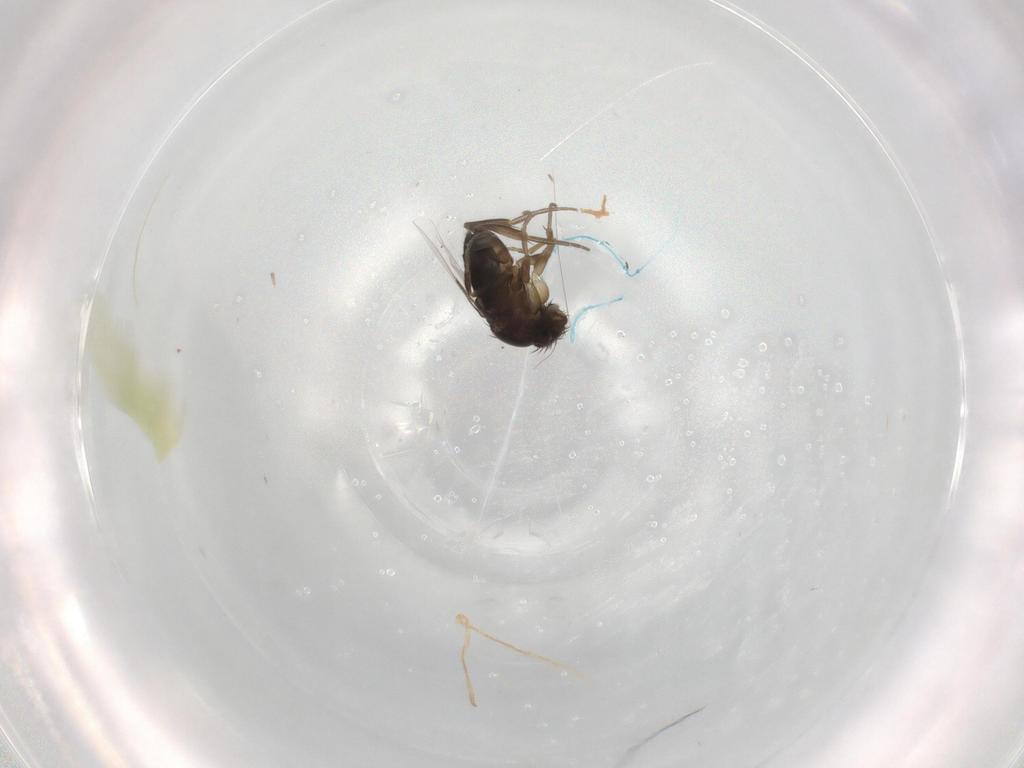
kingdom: Animalia
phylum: Arthropoda
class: Insecta
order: Diptera
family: Phoridae
